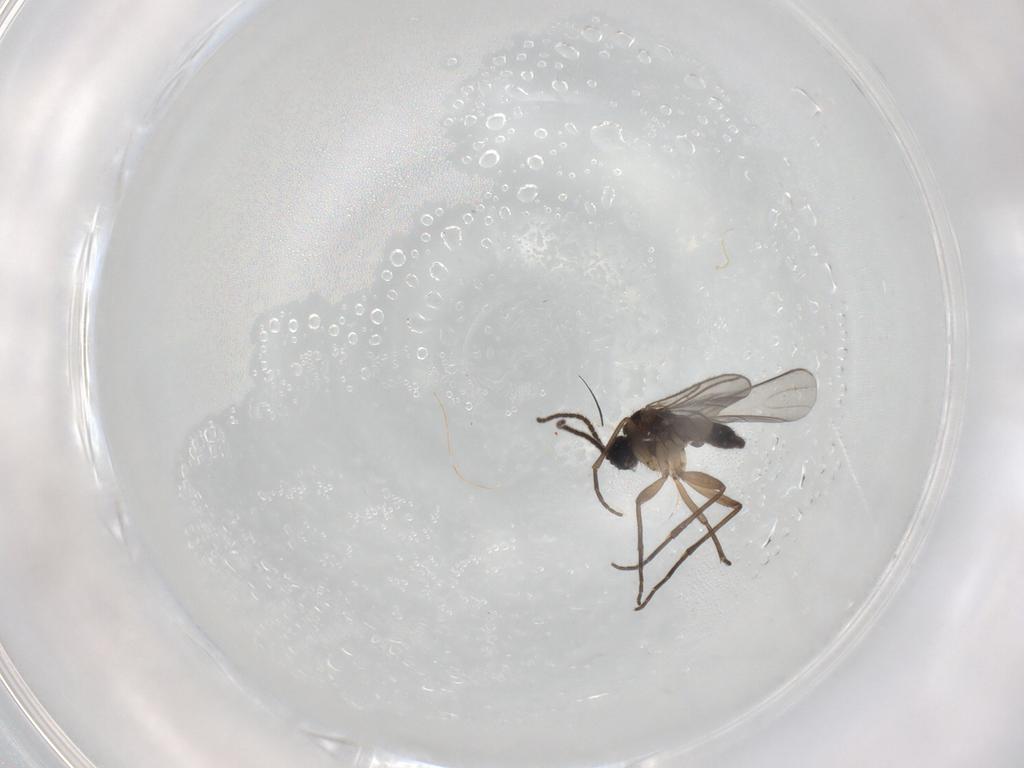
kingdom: Animalia
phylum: Arthropoda
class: Insecta
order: Diptera
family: Sciaridae
